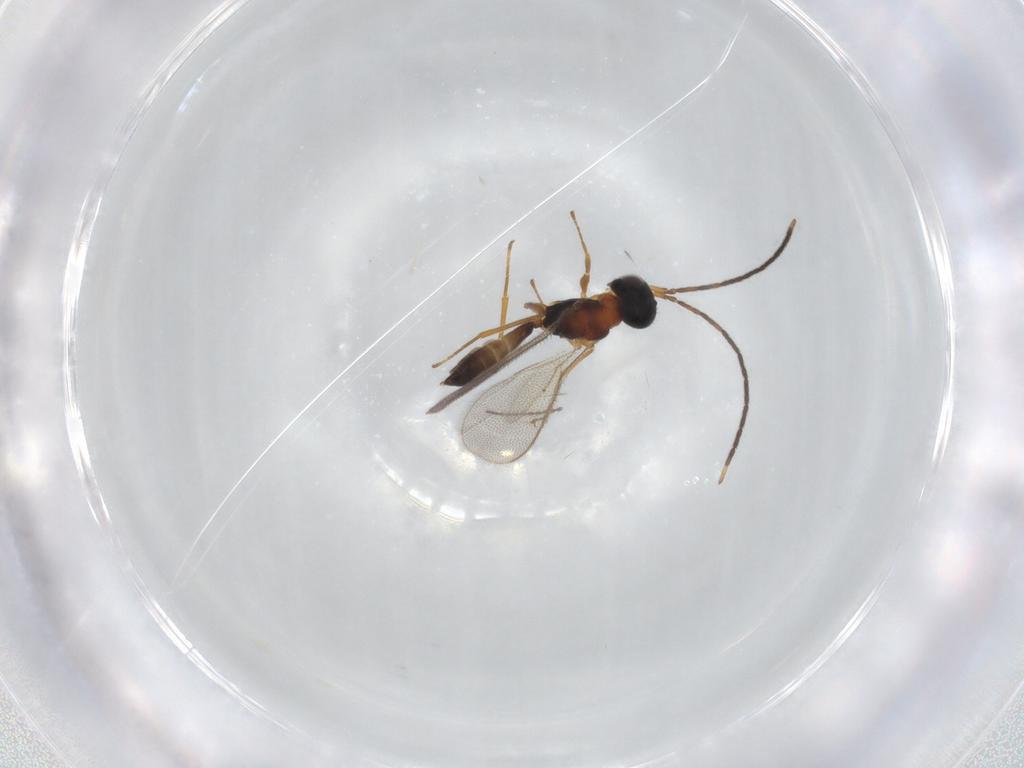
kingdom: Animalia
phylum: Arthropoda
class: Insecta
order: Hymenoptera
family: Pteromalidae
